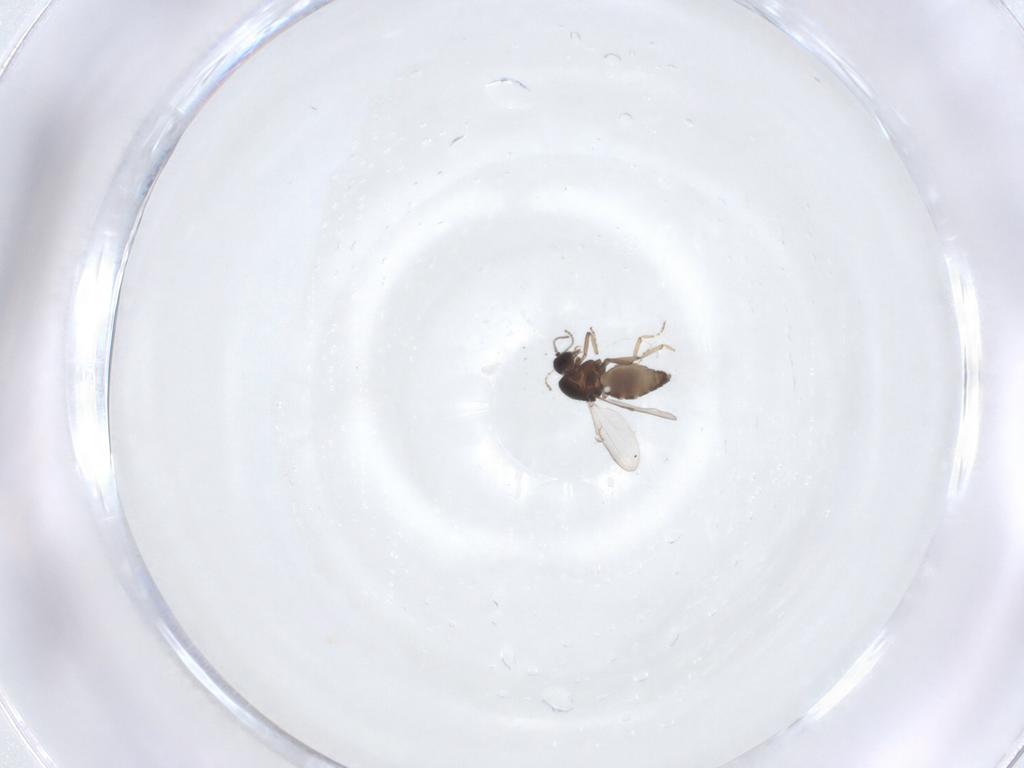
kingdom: Animalia
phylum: Arthropoda
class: Insecta
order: Diptera
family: Cecidomyiidae
